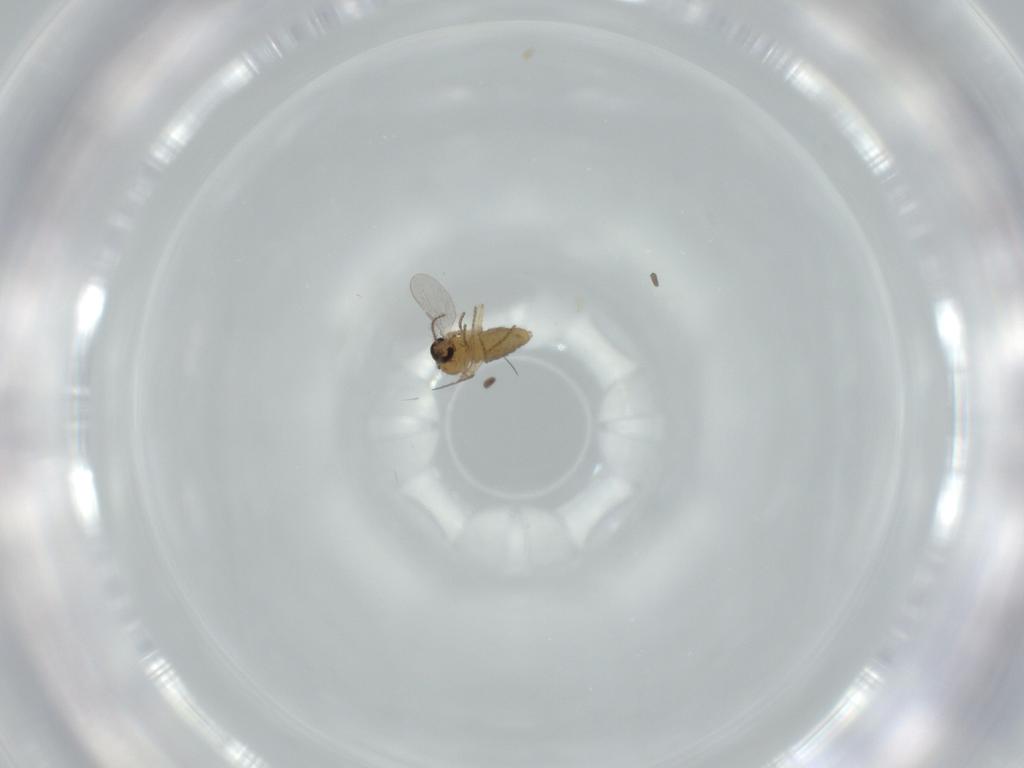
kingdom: Animalia
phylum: Arthropoda
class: Insecta
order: Diptera
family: Ceratopogonidae
